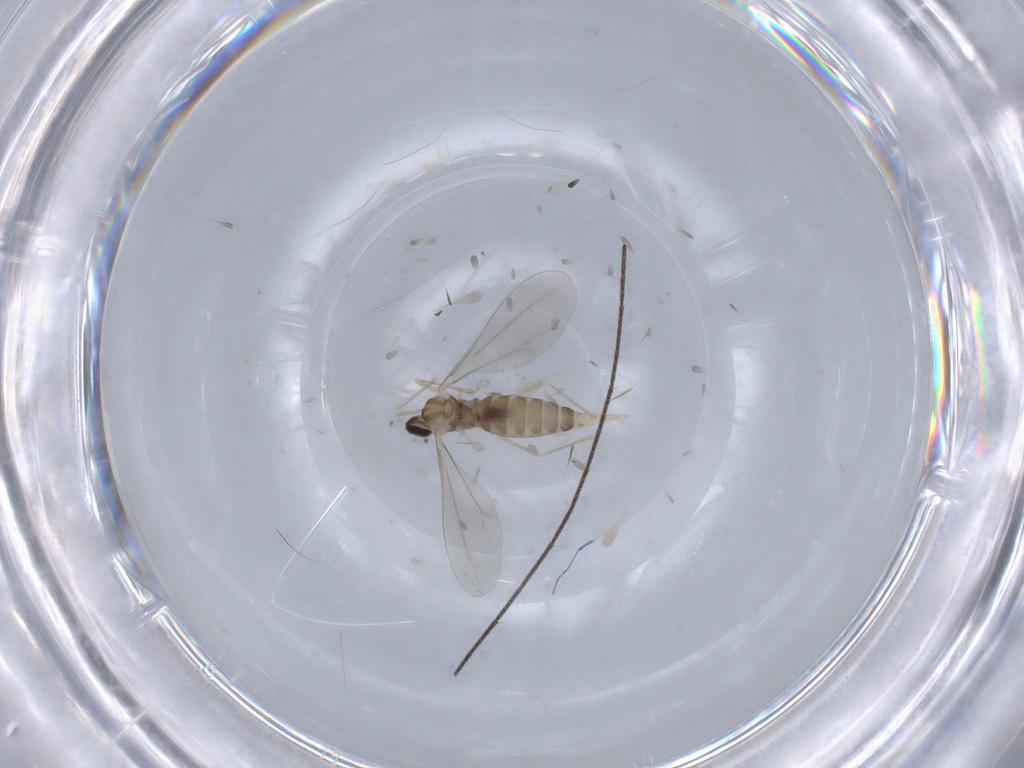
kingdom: Animalia
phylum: Arthropoda
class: Insecta
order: Diptera
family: Cecidomyiidae
